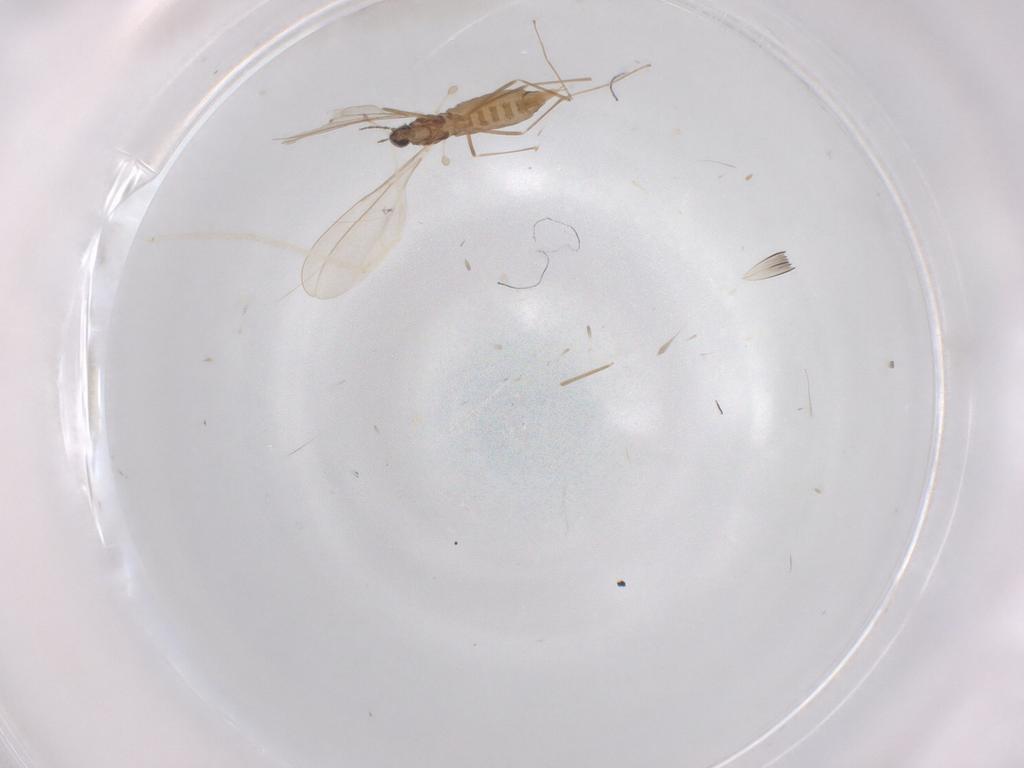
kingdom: Animalia
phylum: Arthropoda
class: Insecta
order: Diptera
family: Cecidomyiidae
